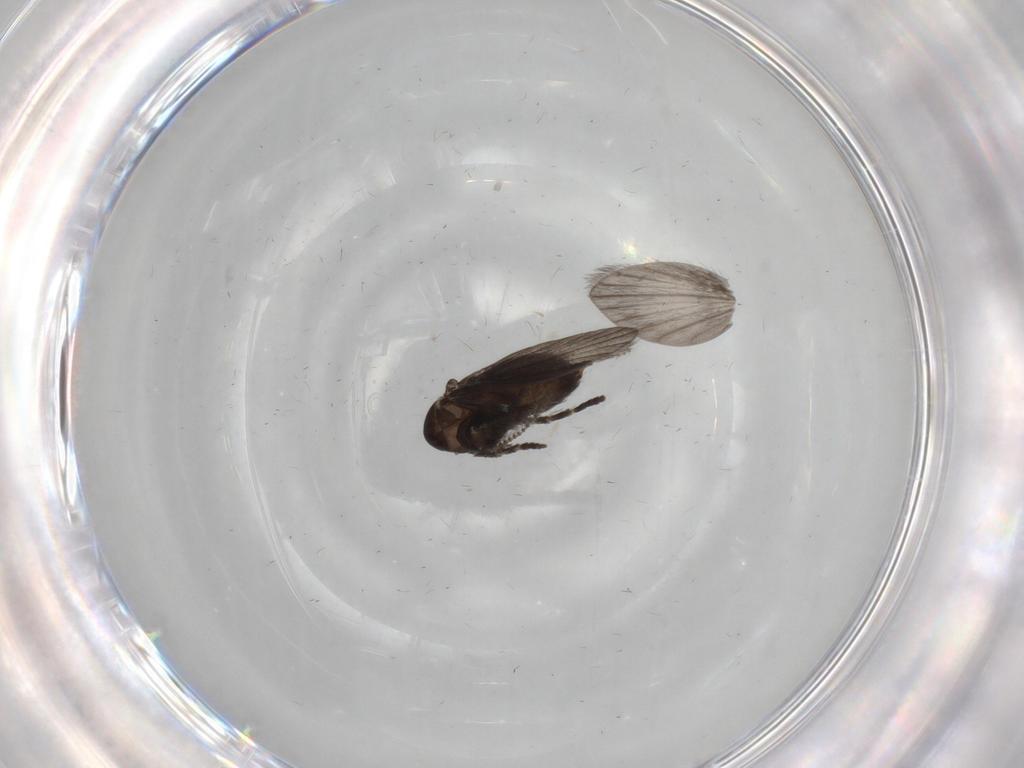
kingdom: Animalia
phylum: Arthropoda
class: Insecta
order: Diptera
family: Psychodidae
